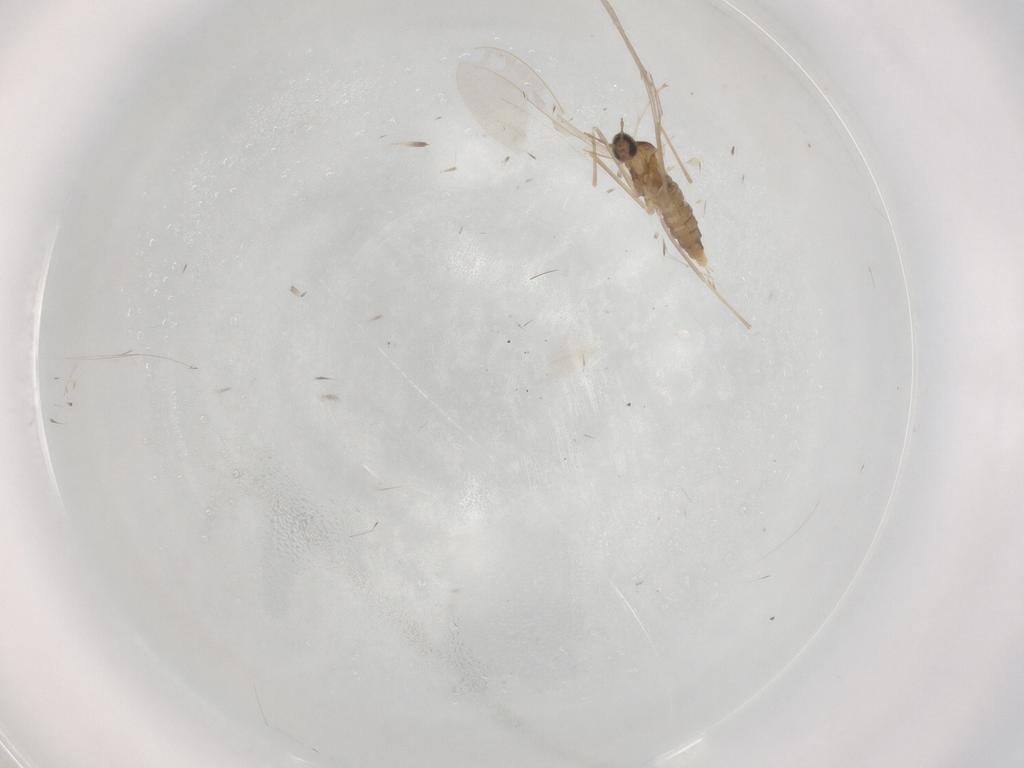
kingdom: Animalia
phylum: Arthropoda
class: Insecta
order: Diptera
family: Cecidomyiidae
